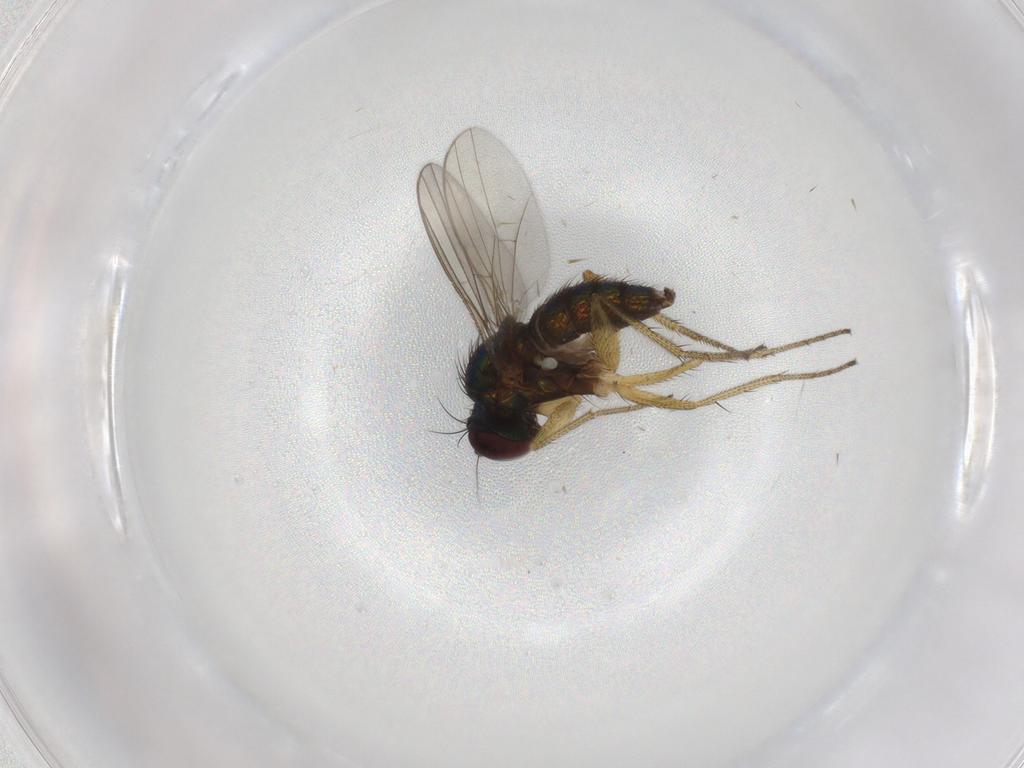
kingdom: Animalia
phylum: Arthropoda
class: Insecta
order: Diptera
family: Dolichopodidae
